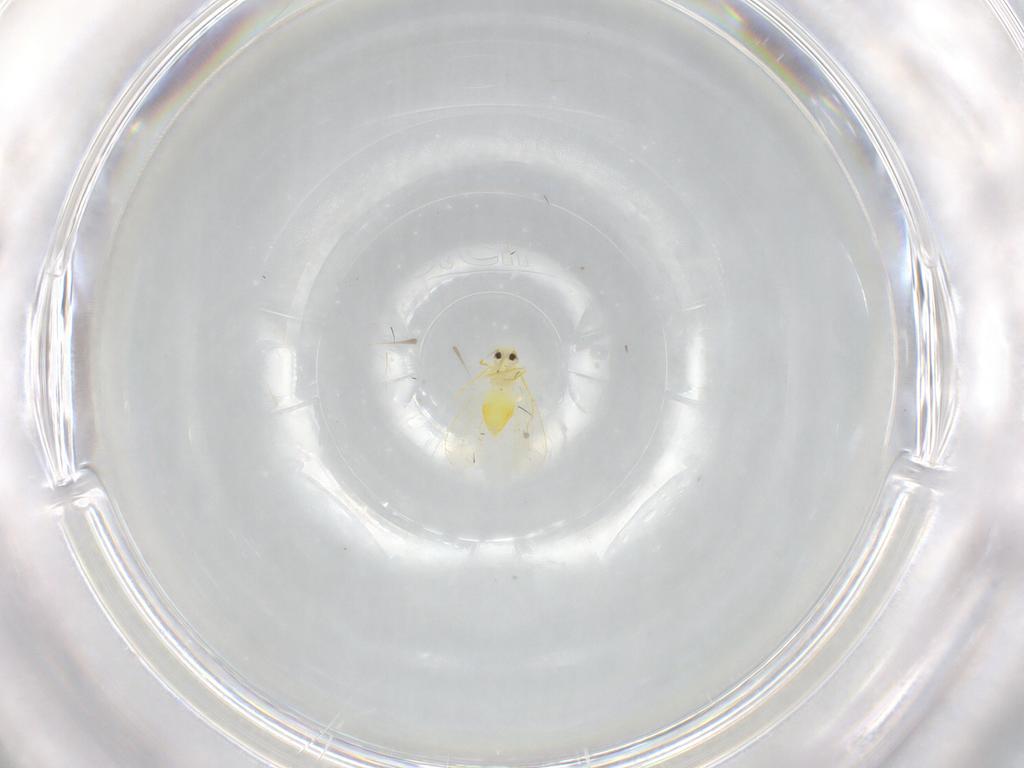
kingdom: Animalia
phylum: Arthropoda
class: Insecta
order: Hemiptera
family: Aleyrodidae
